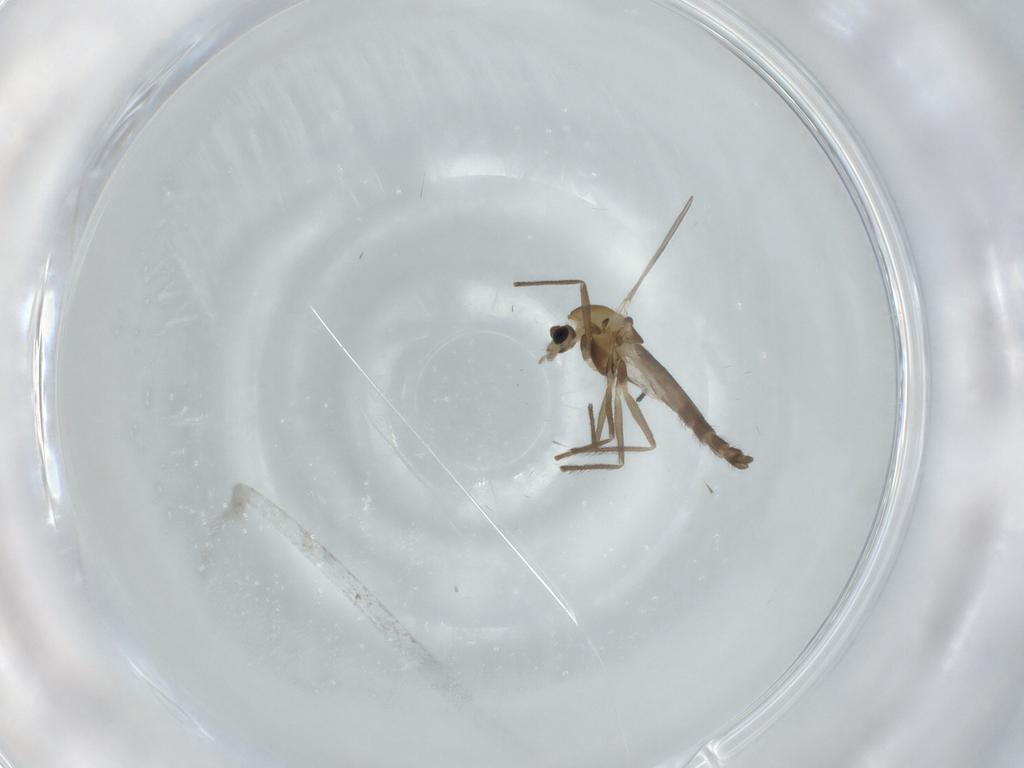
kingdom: Animalia
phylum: Arthropoda
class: Insecta
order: Diptera
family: Chironomidae
